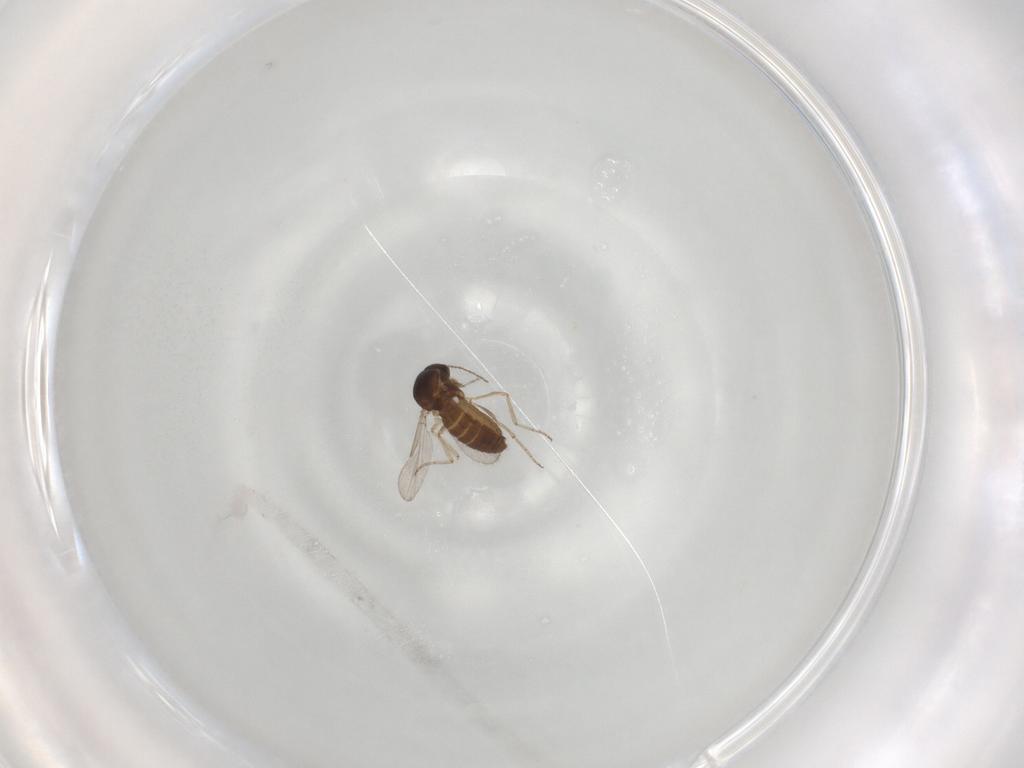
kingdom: Animalia
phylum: Arthropoda
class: Insecta
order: Diptera
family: Ceratopogonidae
